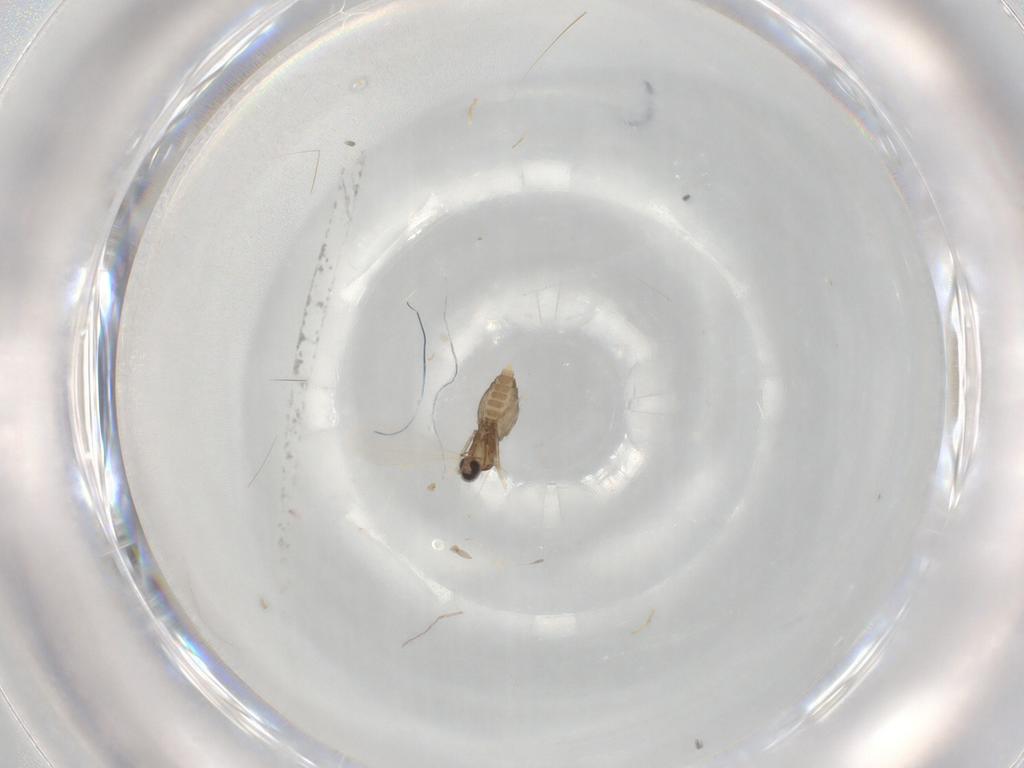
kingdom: Animalia
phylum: Arthropoda
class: Insecta
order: Diptera
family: Cecidomyiidae
